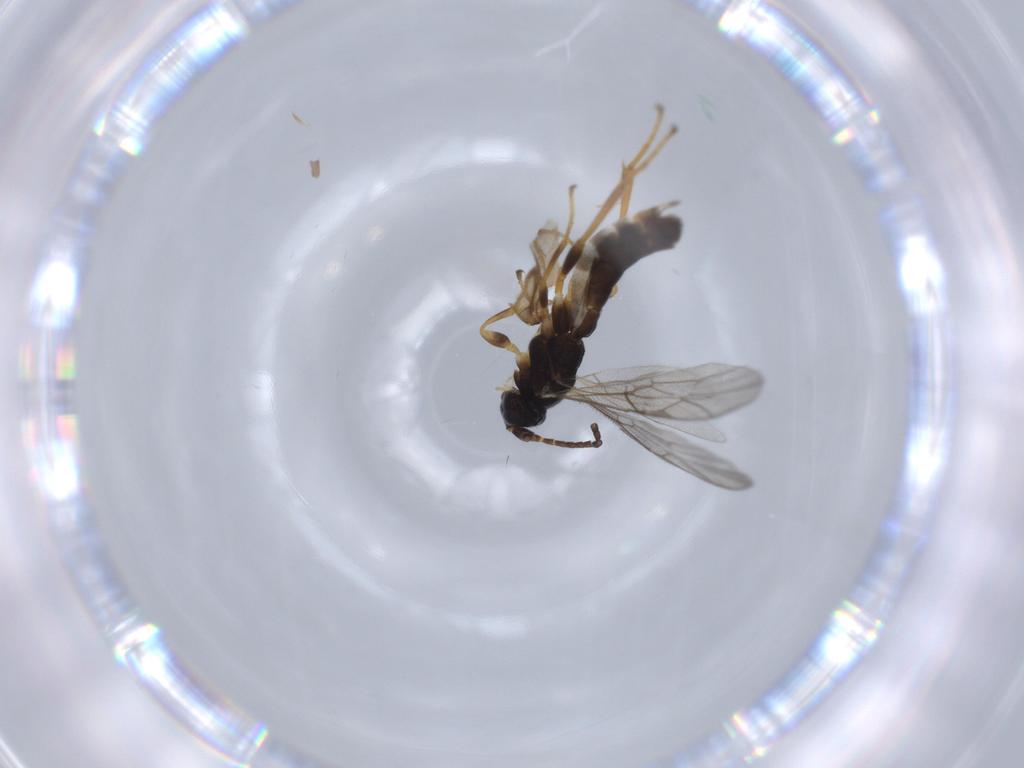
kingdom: Animalia
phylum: Arthropoda
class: Insecta
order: Hymenoptera
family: Ichneumonidae
